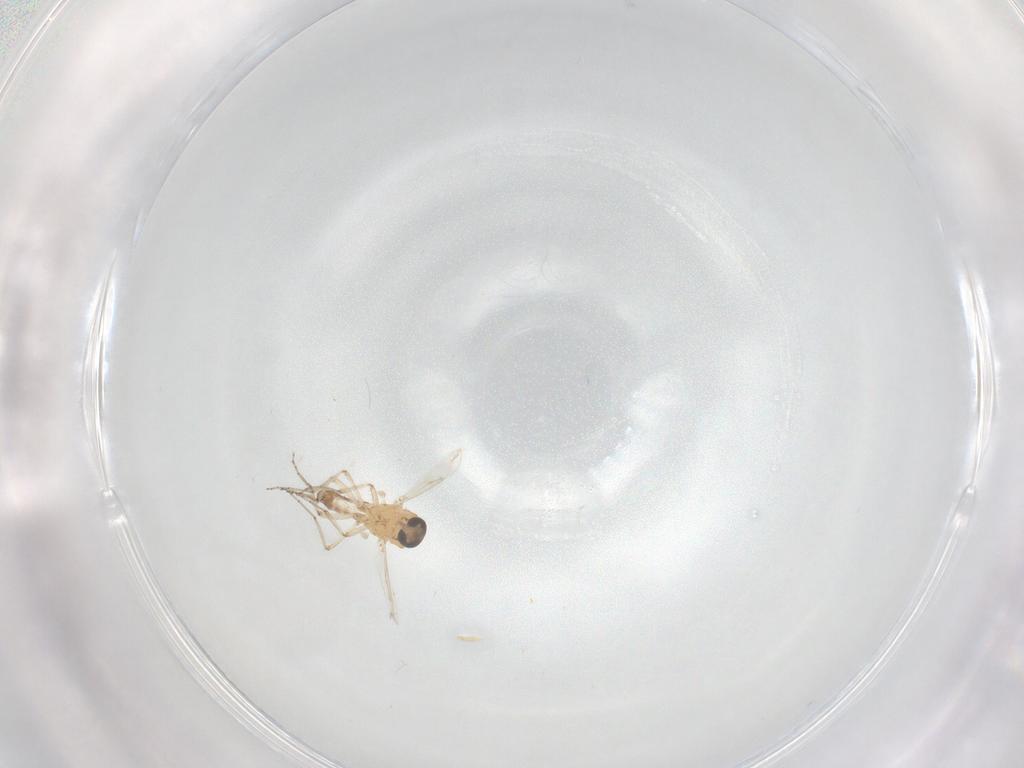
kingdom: Animalia
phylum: Arthropoda
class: Insecta
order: Diptera
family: Ceratopogonidae
